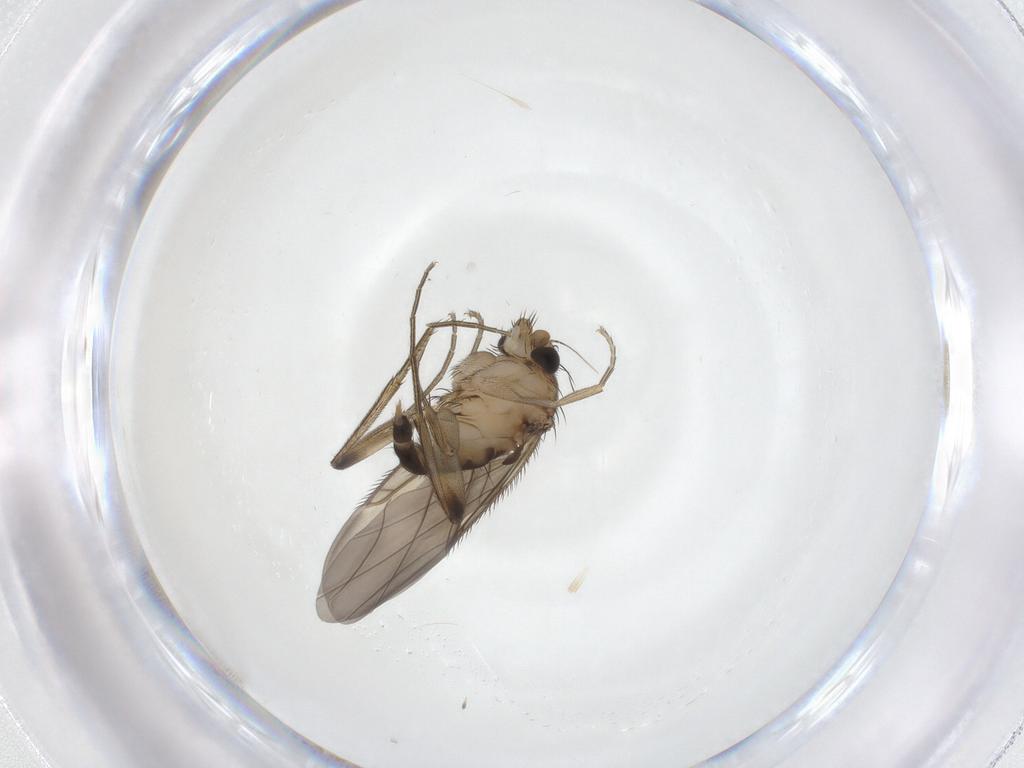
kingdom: Animalia
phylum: Arthropoda
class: Insecta
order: Diptera
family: Phoridae
